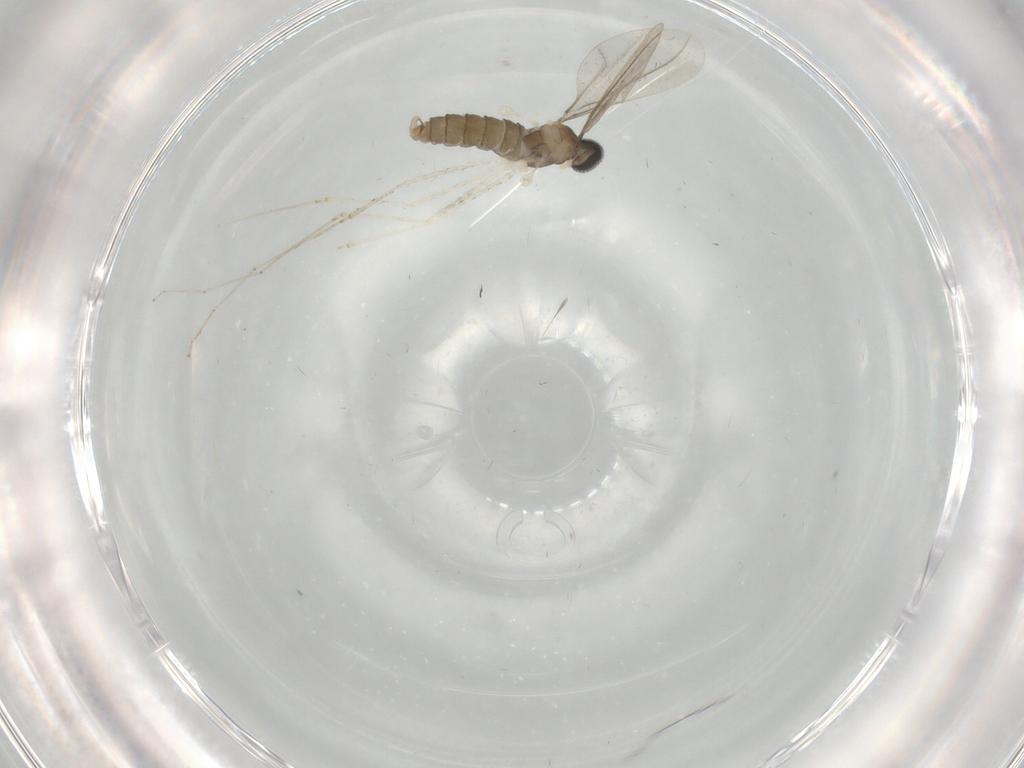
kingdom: Animalia
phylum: Arthropoda
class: Insecta
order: Diptera
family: Cecidomyiidae
